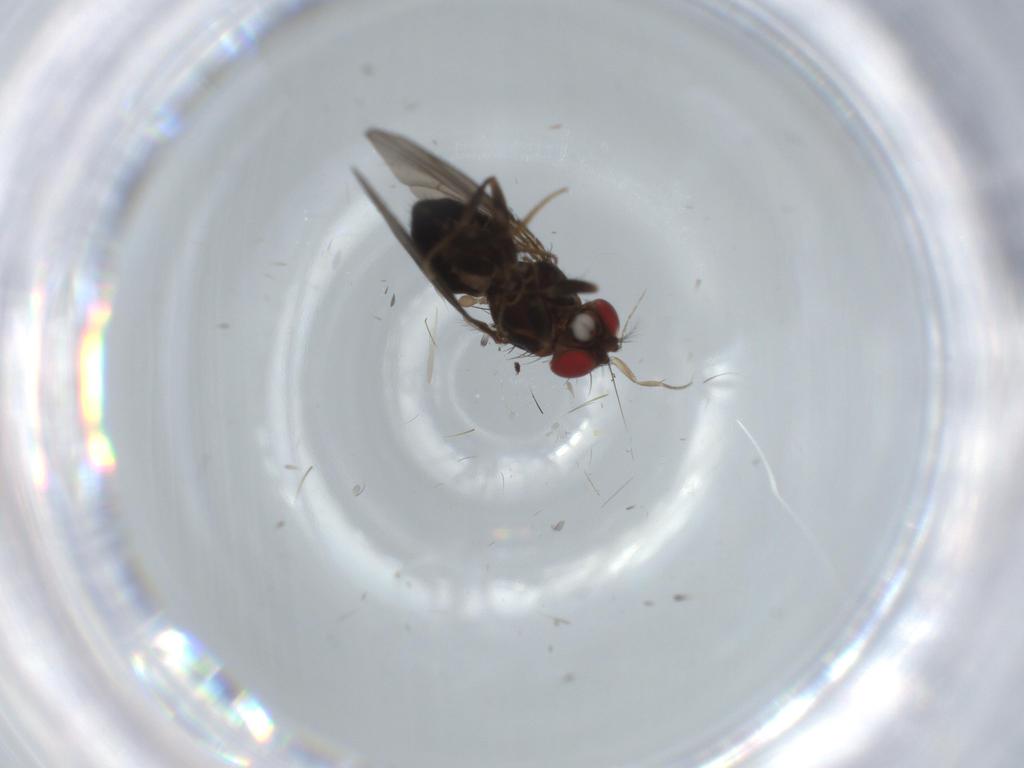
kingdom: Animalia
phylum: Arthropoda
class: Insecta
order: Diptera
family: Drosophilidae
